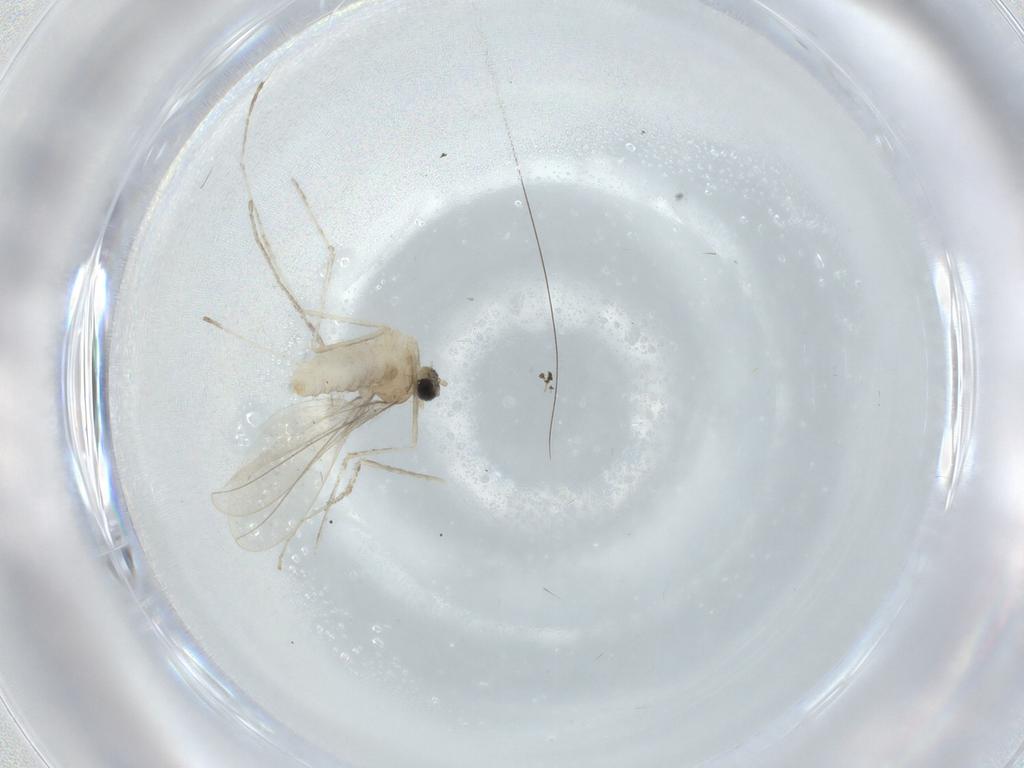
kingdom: Animalia
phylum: Arthropoda
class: Insecta
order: Diptera
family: Cecidomyiidae
